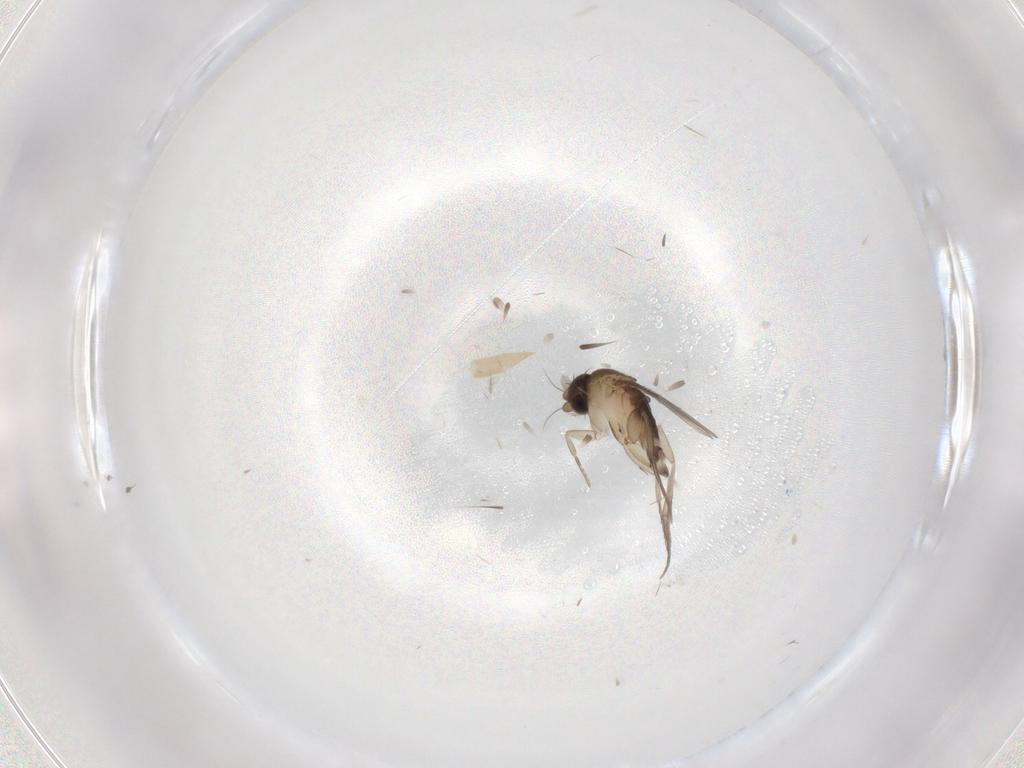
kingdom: Animalia
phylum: Arthropoda
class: Insecta
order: Diptera
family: Phoridae
